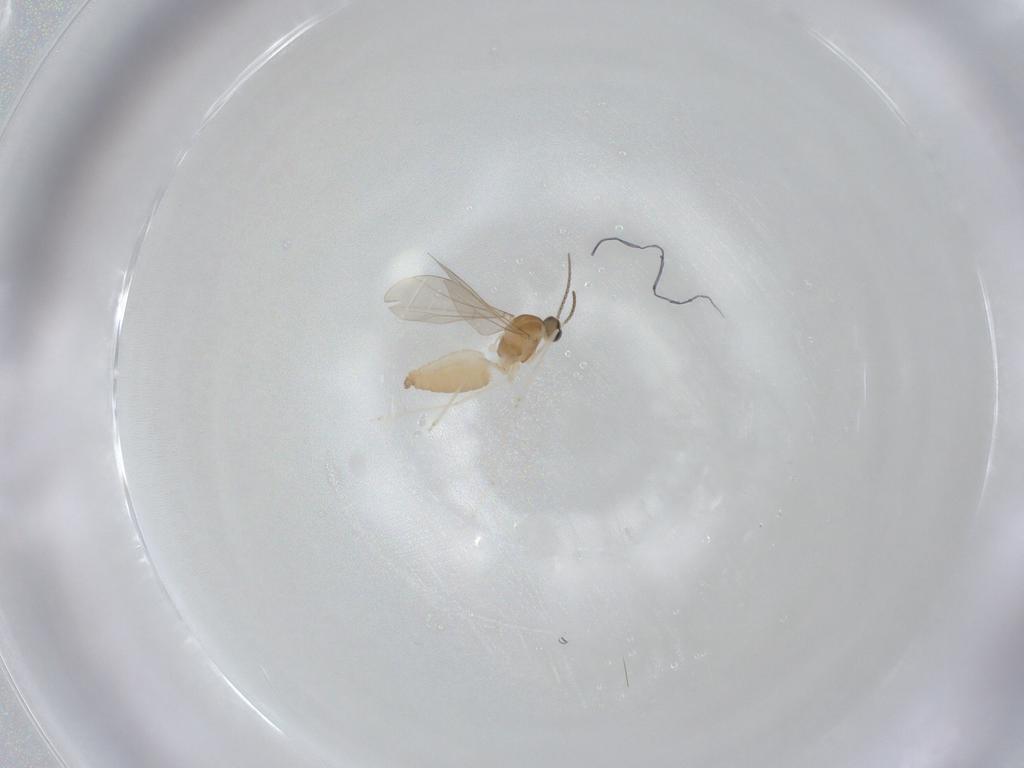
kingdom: Animalia
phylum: Arthropoda
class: Insecta
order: Diptera
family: Cecidomyiidae
